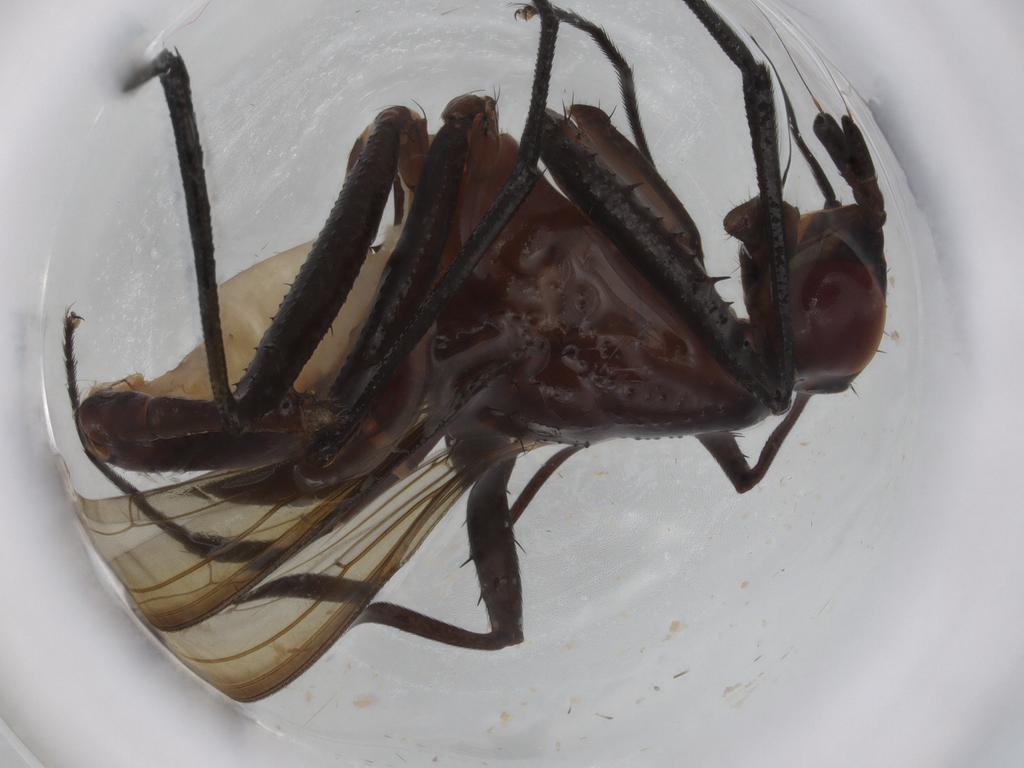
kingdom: Animalia
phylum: Arthropoda
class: Insecta
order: Diptera
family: Neriidae
